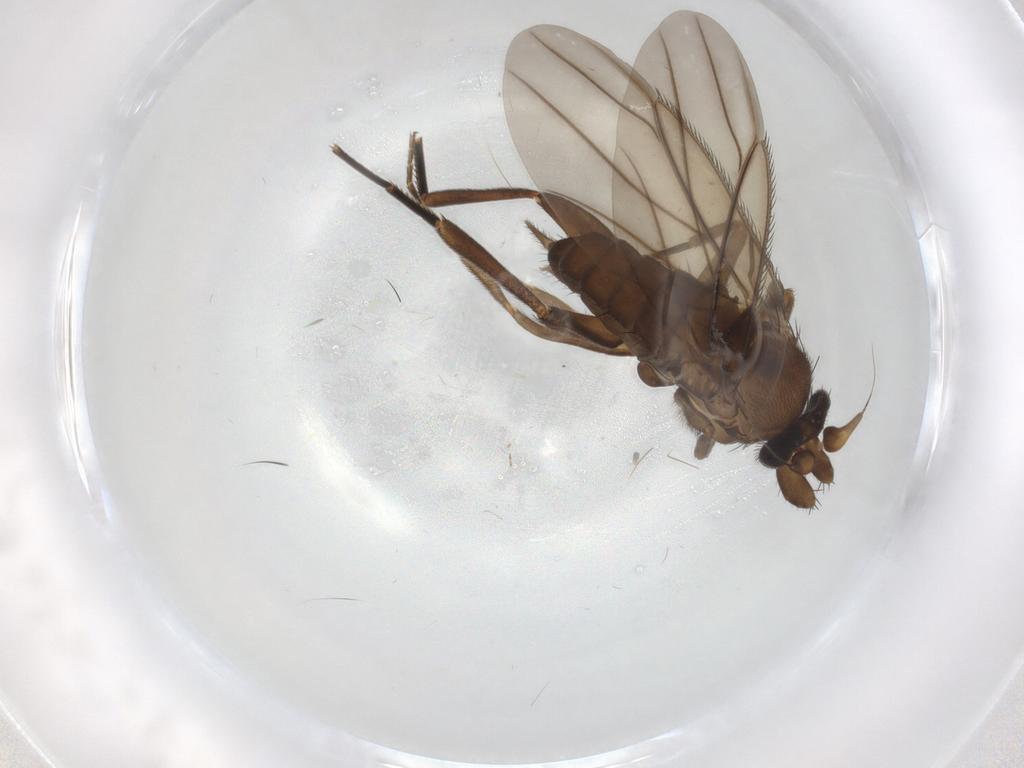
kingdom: Animalia
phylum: Arthropoda
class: Insecta
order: Diptera
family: Phoridae
